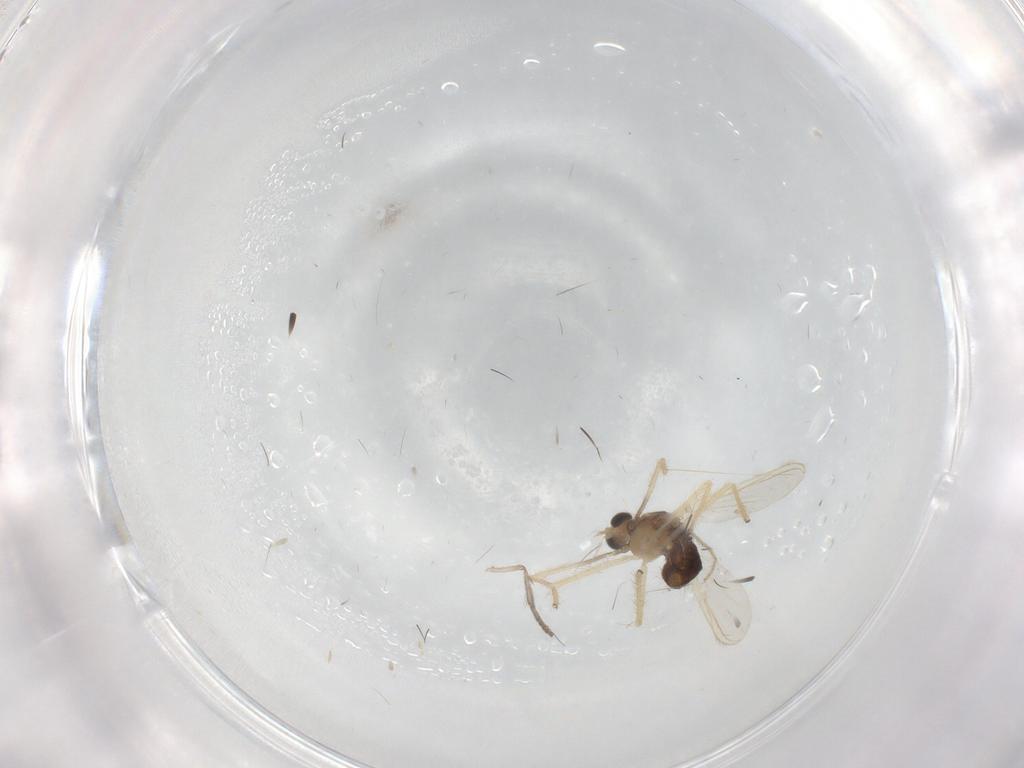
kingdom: Animalia
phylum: Arthropoda
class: Insecta
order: Diptera
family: Chironomidae
